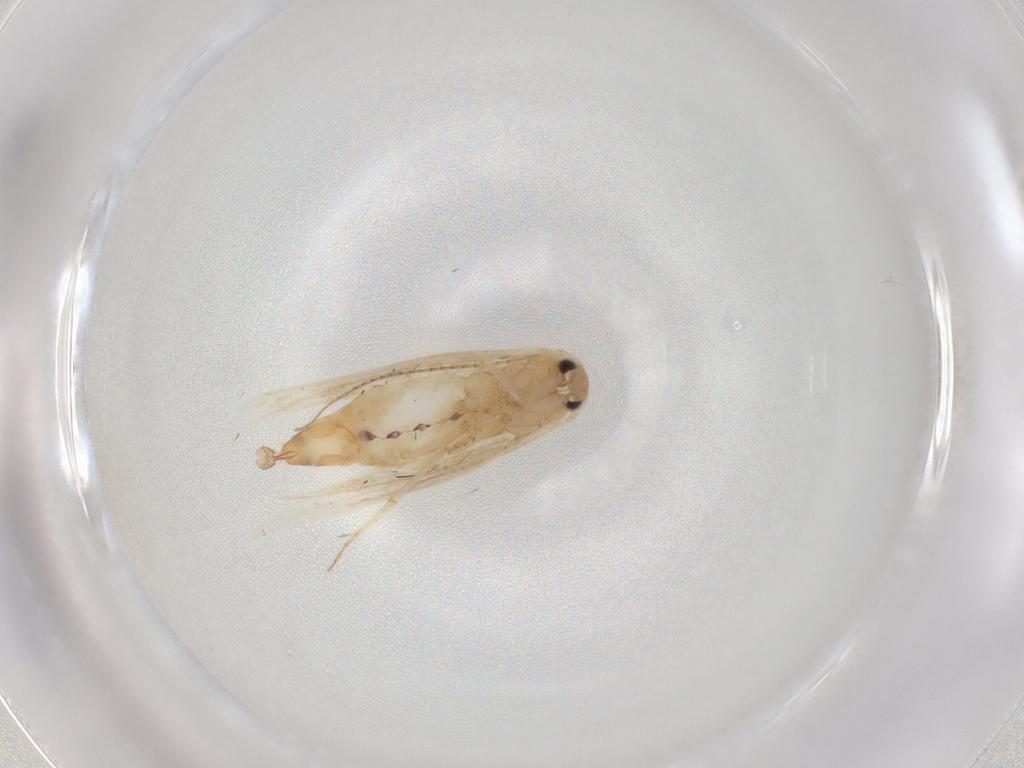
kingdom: Animalia
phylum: Arthropoda
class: Insecta
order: Lepidoptera
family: Bucculatricidae
